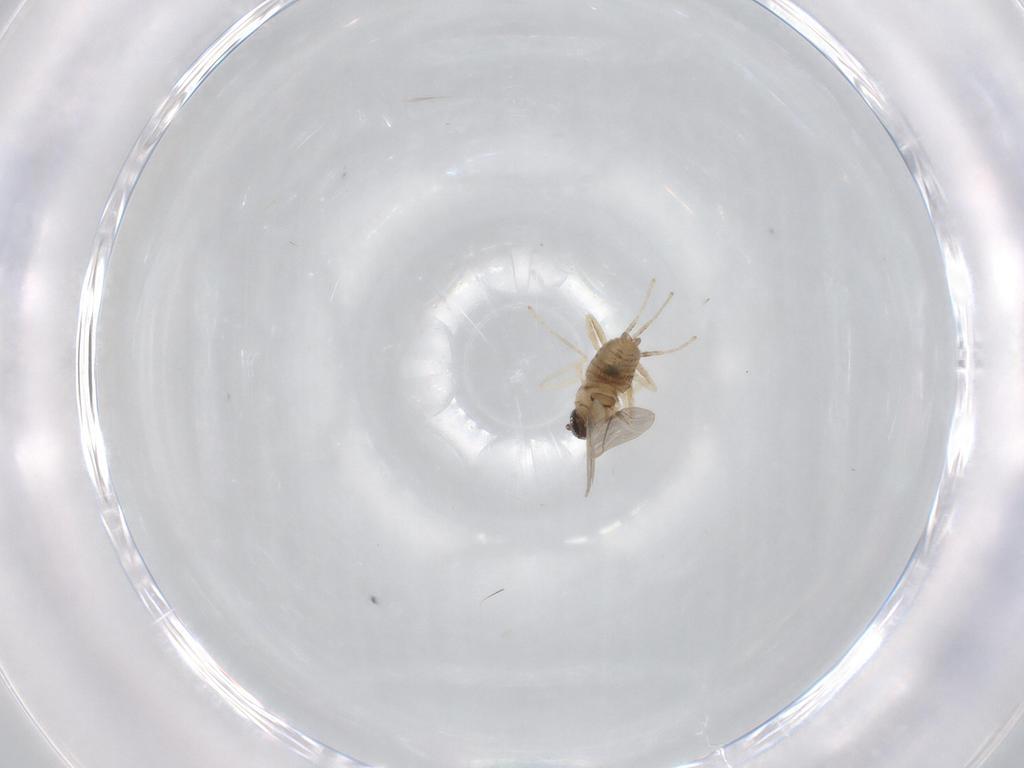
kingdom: Animalia
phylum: Arthropoda
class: Insecta
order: Diptera
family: Cecidomyiidae
